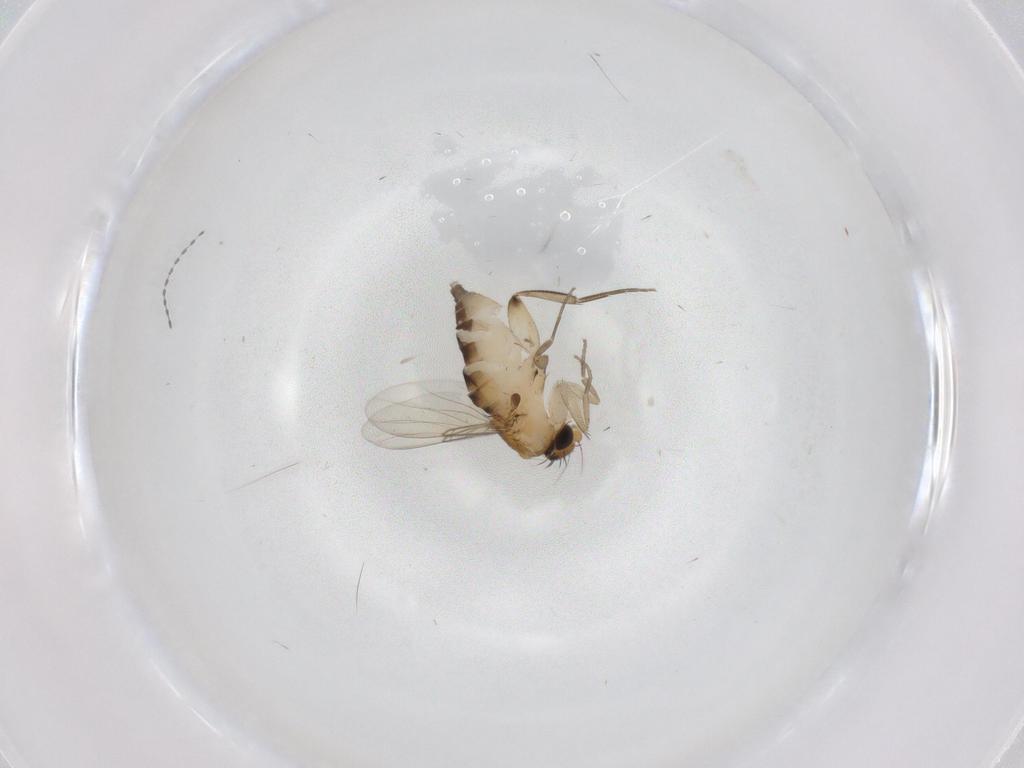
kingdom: Animalia
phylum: Arthropoda
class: Insecta
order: Diptera
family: Phoridae
